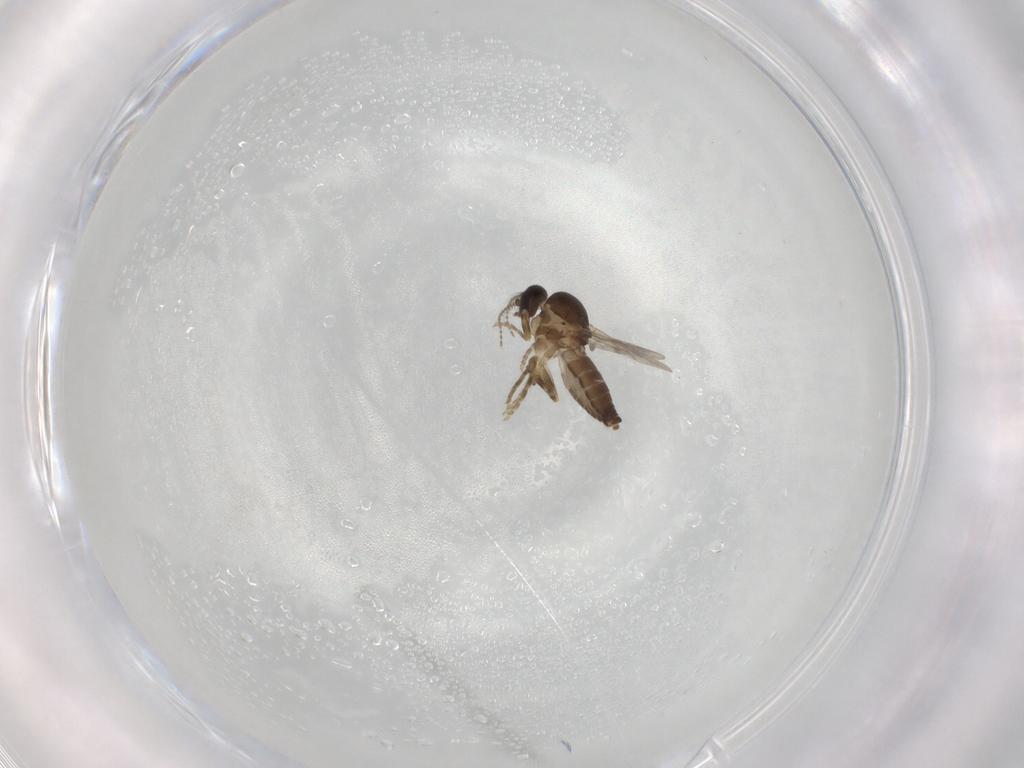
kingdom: Animalia
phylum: Arthropoda
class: Insecta
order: Diptera
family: Ceratopogonidae
